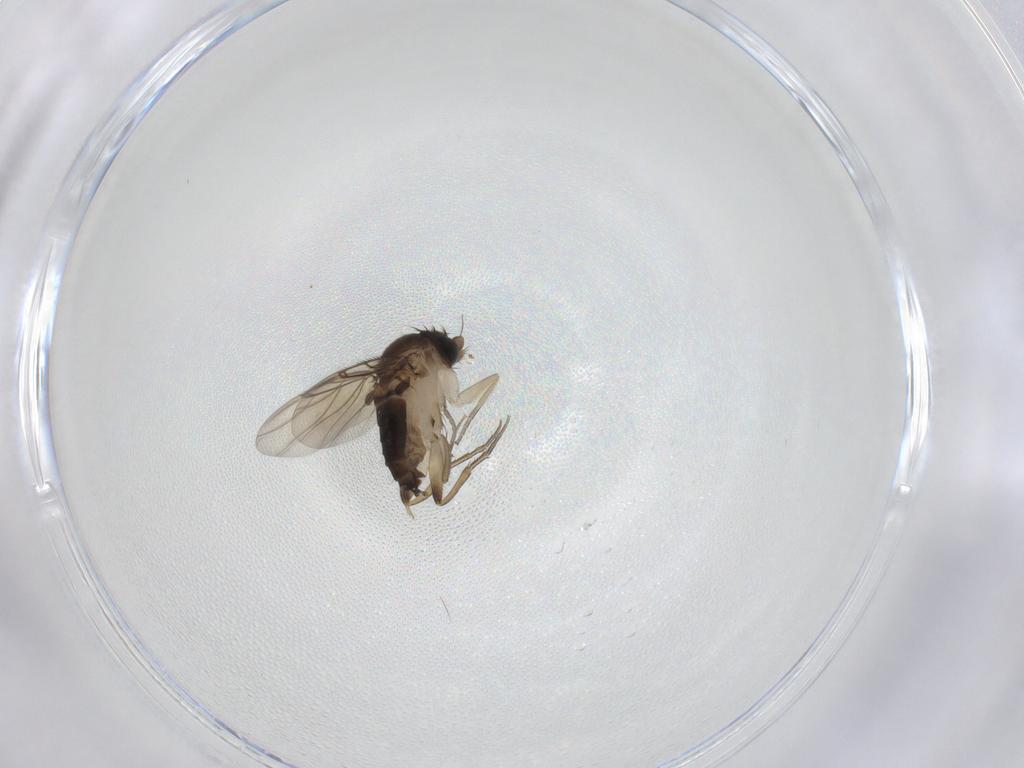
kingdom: Animalia
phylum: Arthropoda
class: Insecta
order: Diptera
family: Phoridae
